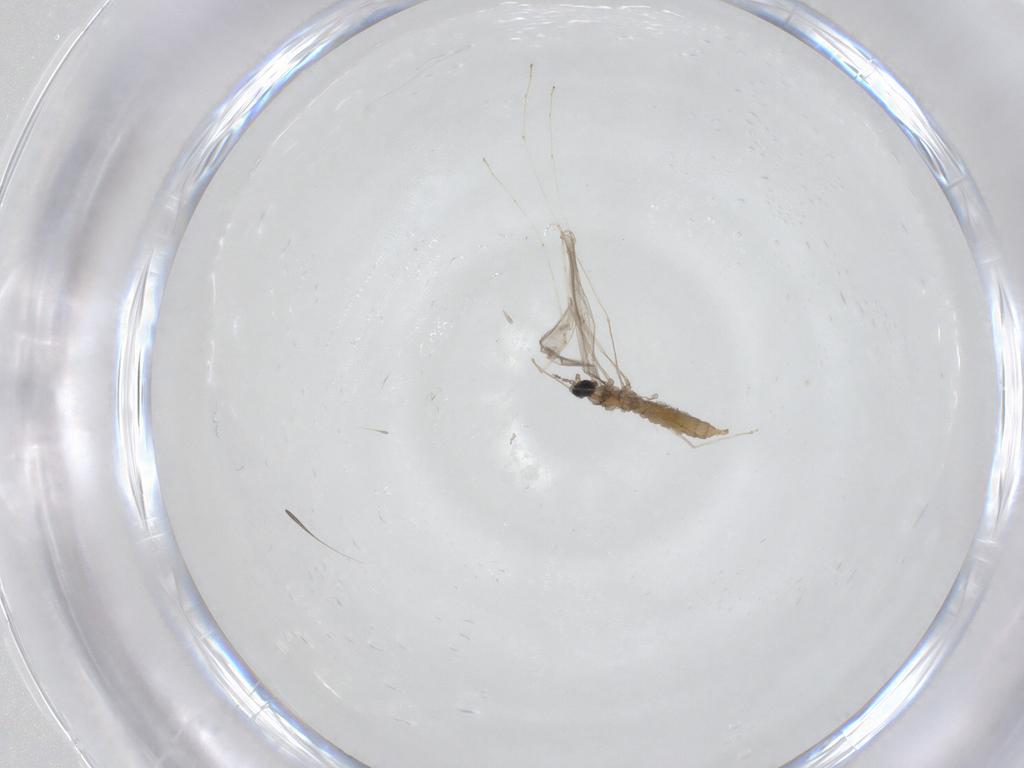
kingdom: Animalia
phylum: Arthropoda
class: Insecta
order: Diptera
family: Cecidomyiidae
